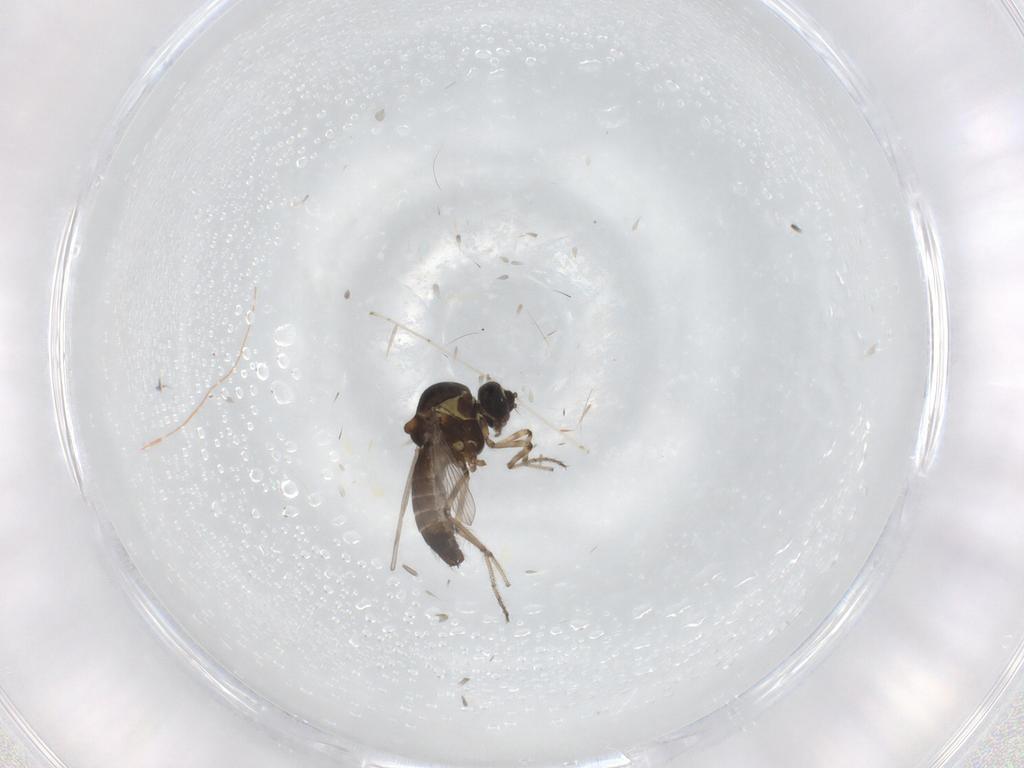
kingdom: Animalia
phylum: Arthropoda
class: Insecta
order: Diptera
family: Ceratopogonidae
